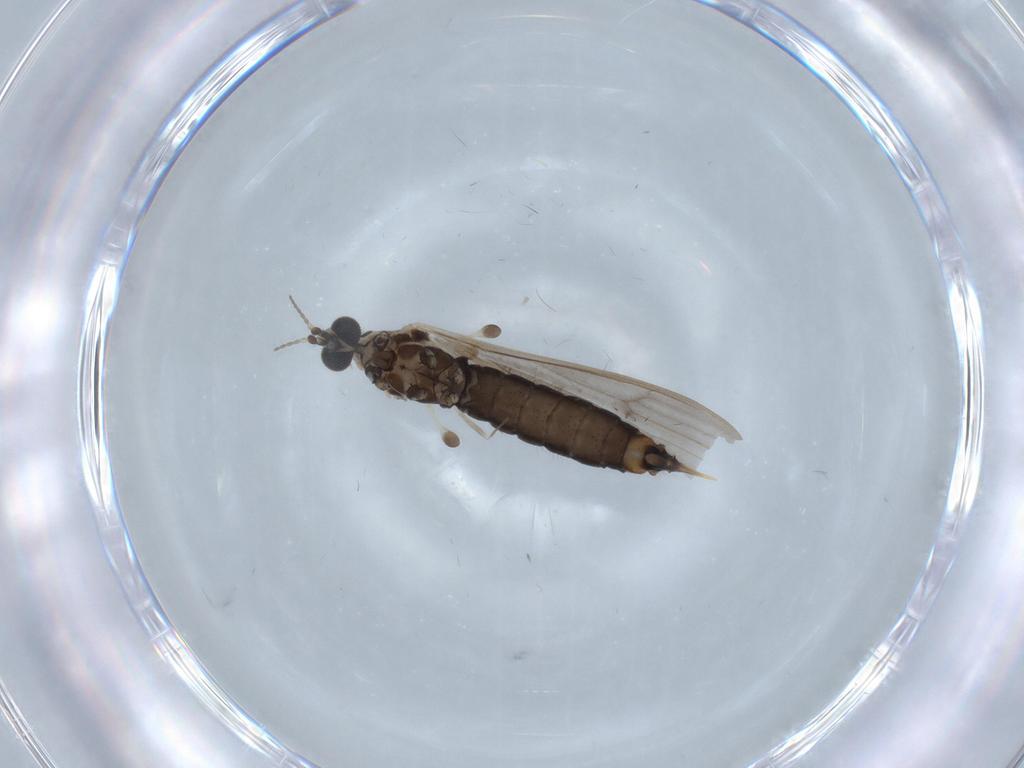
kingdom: Animalia
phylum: Arthropoda
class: Insecta
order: Diptera
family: Limoniidae
